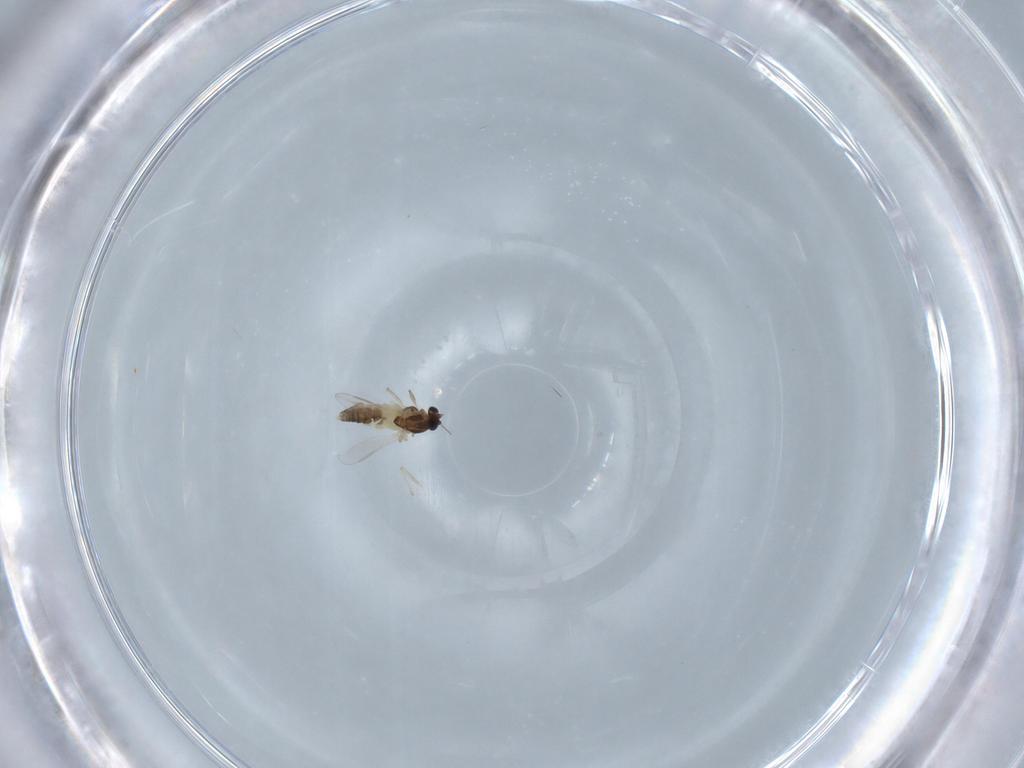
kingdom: Animalia
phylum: Arthropoda
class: Insecta
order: Diptera
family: Chironomidae
